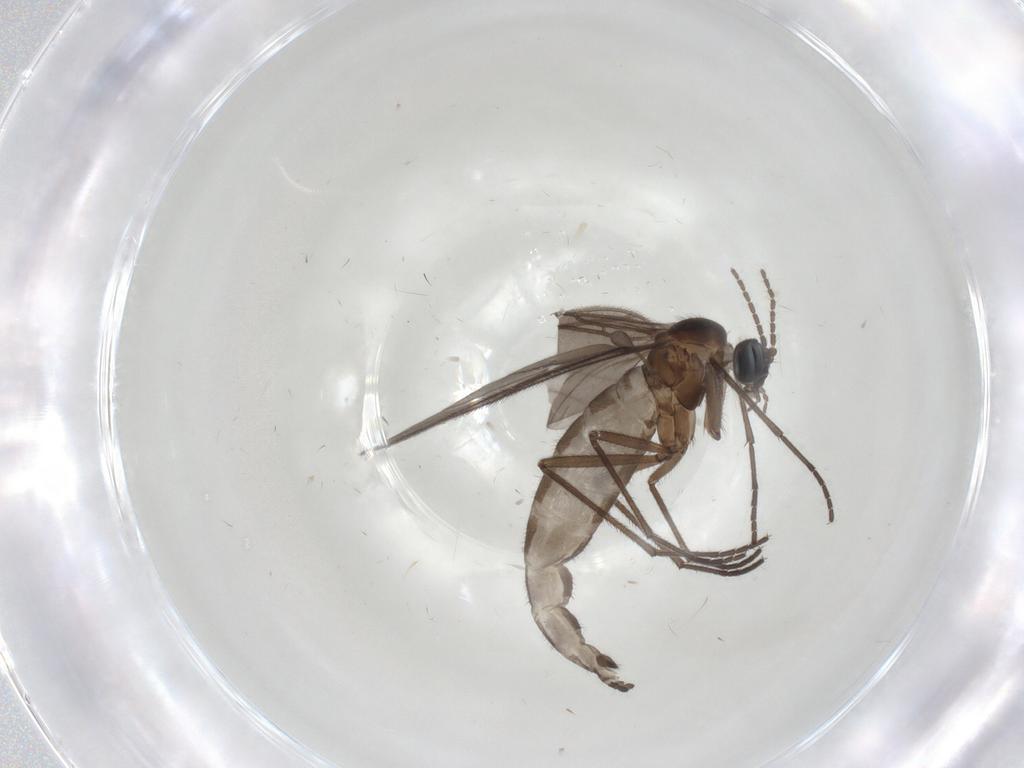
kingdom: Animalia
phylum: Arthropoda
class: Insecta
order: Diptera
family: Sciaridae
